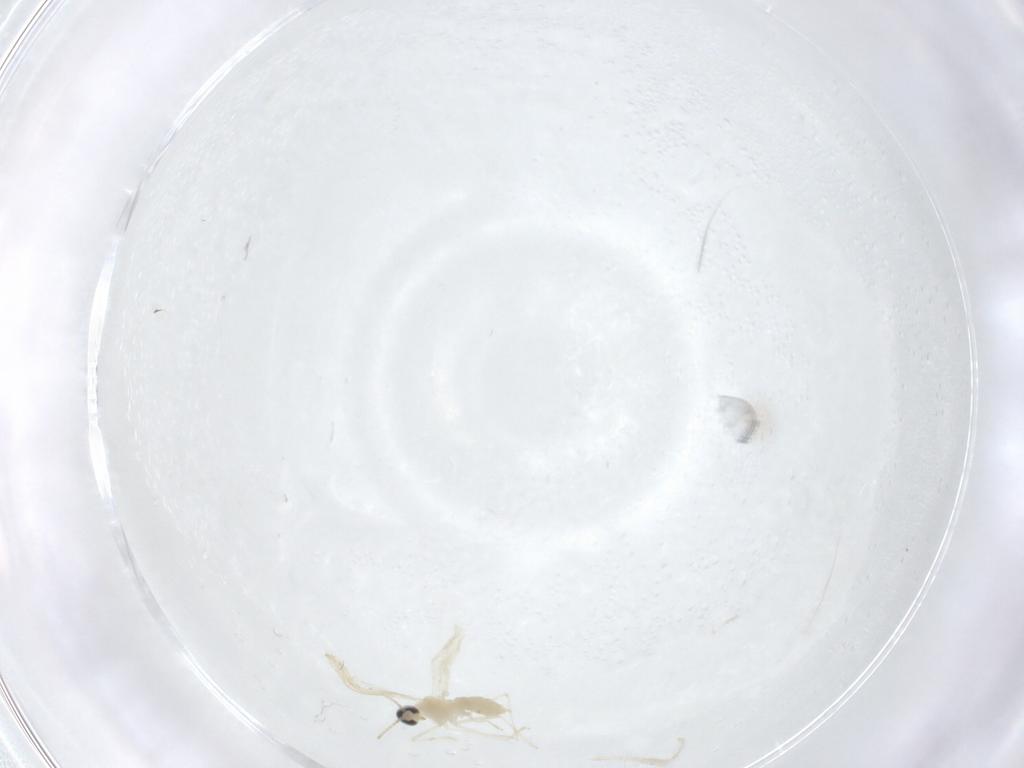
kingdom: Animalia
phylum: Arthropoda
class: Insecta
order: Diptera
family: Cecidomyiidae
